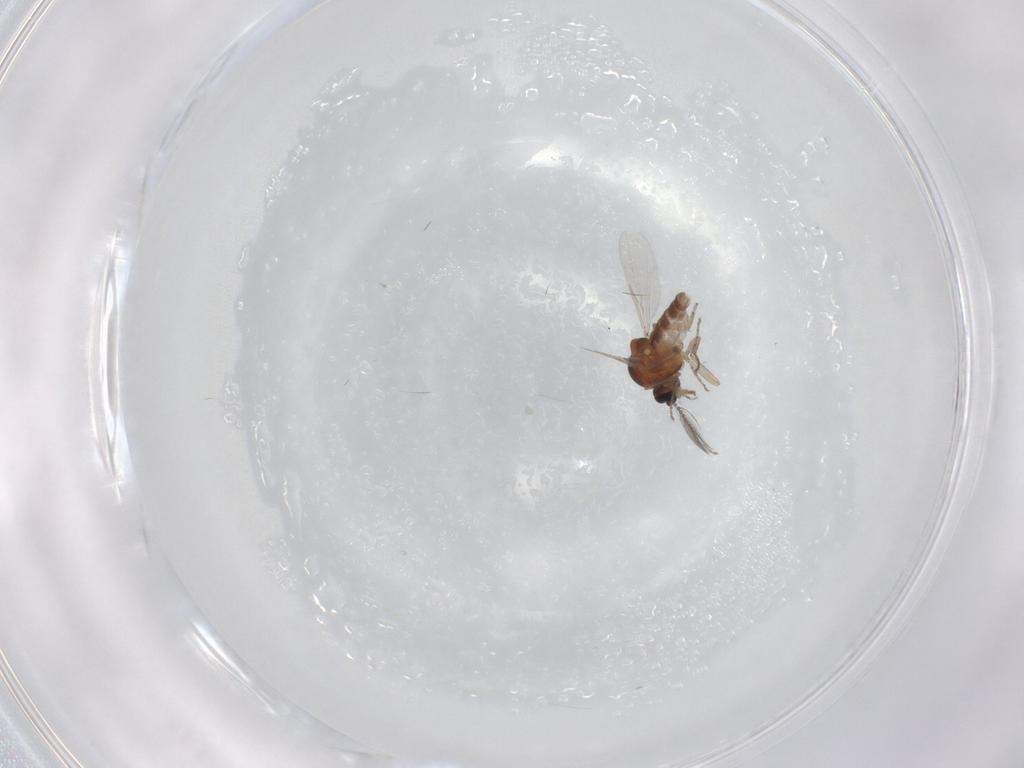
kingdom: Animalia
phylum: Arthropoda
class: Insecta
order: Diptera
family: Ceratopogonidae
